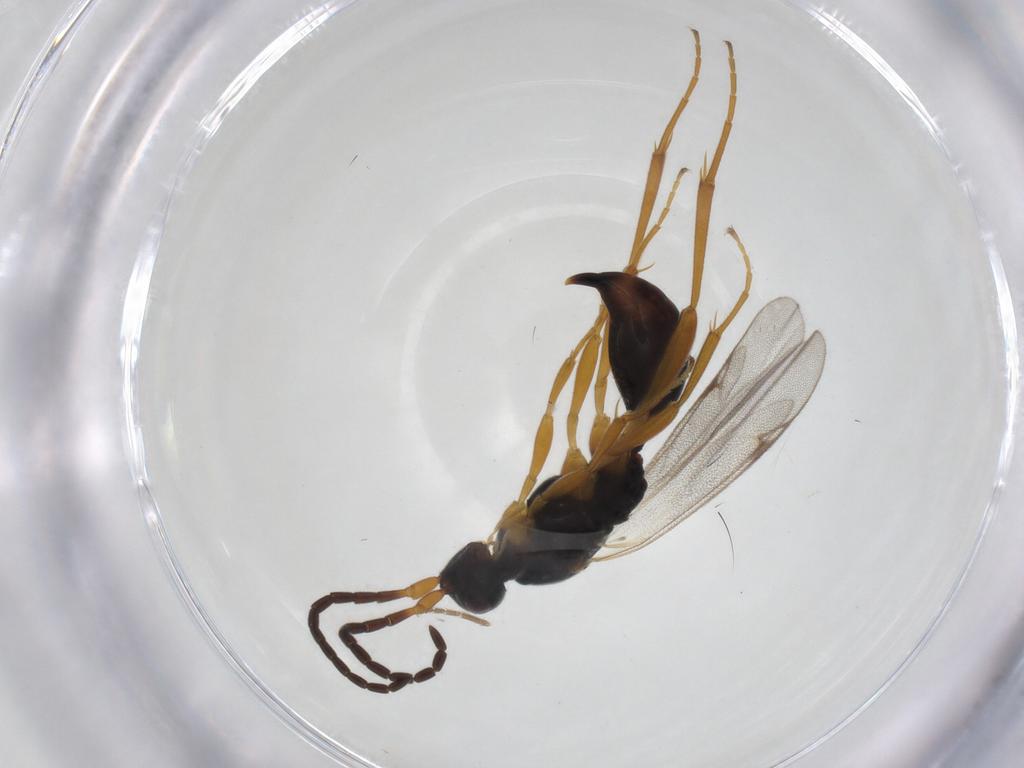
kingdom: Animalia
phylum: Arthropoda
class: Insecta
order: Hymenoptera
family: Proctotrupidae
